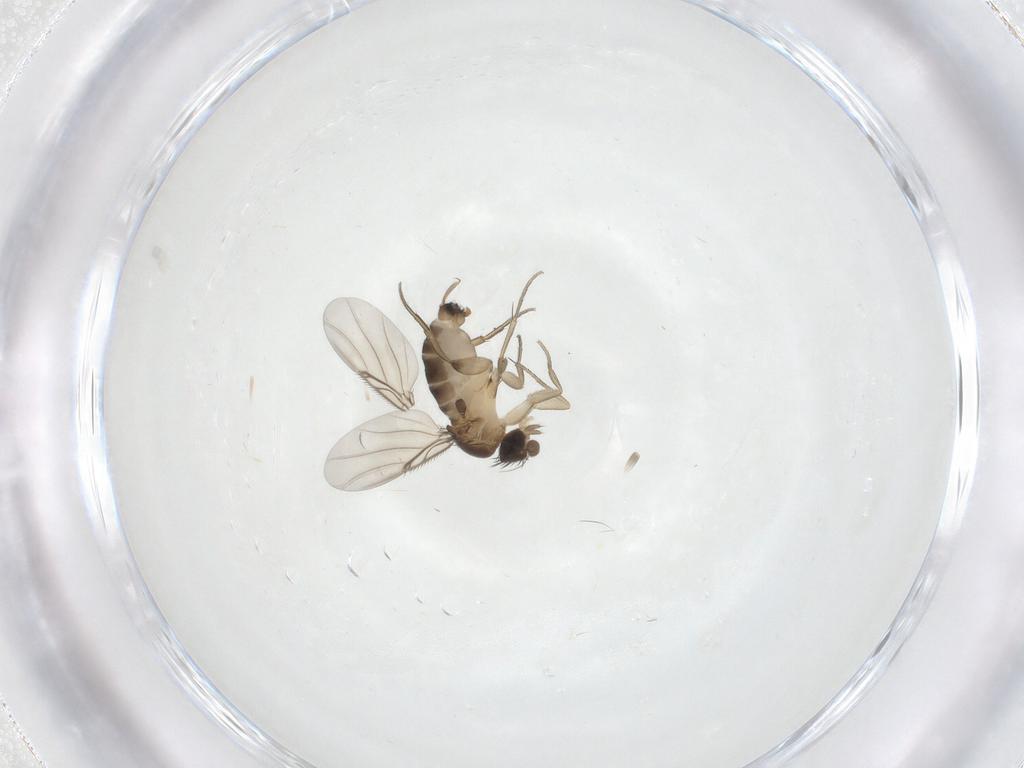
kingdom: Animalia
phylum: Arthropoda
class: Insecta
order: Diptera
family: Phoridae
